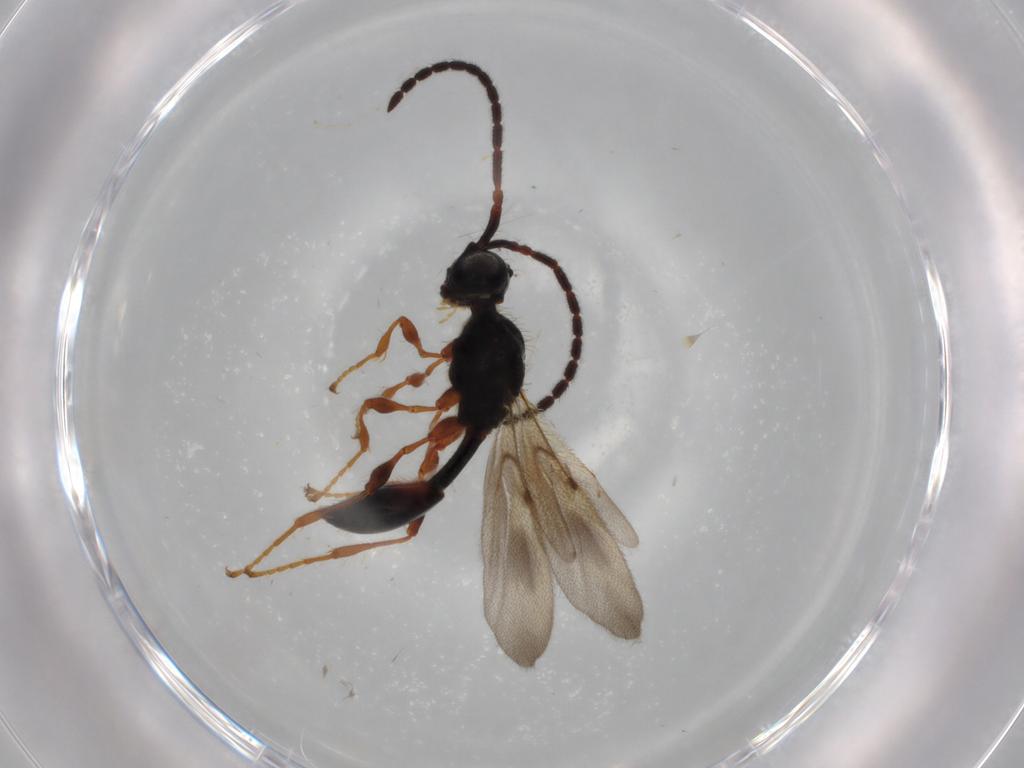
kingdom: Animalia
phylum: Arthropoda
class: Insecta
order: Hymenoptera
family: Diapriidae
